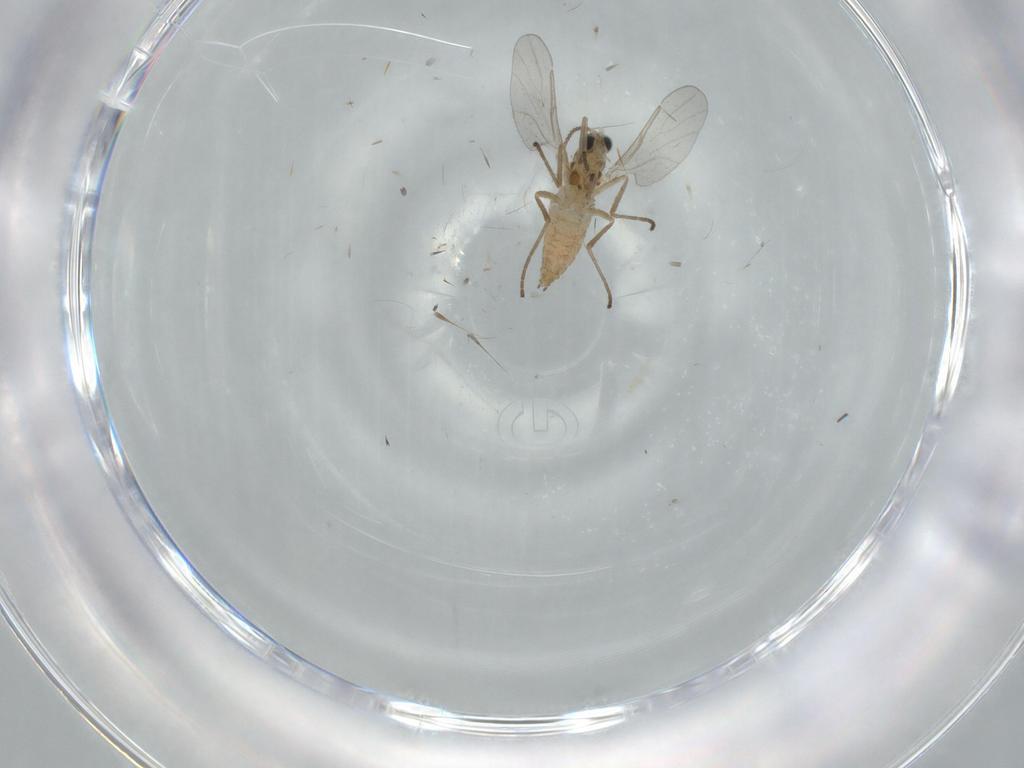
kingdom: Animalia
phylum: Arthropoda
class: Insecta
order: Diptera
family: Cecidomyiidae
